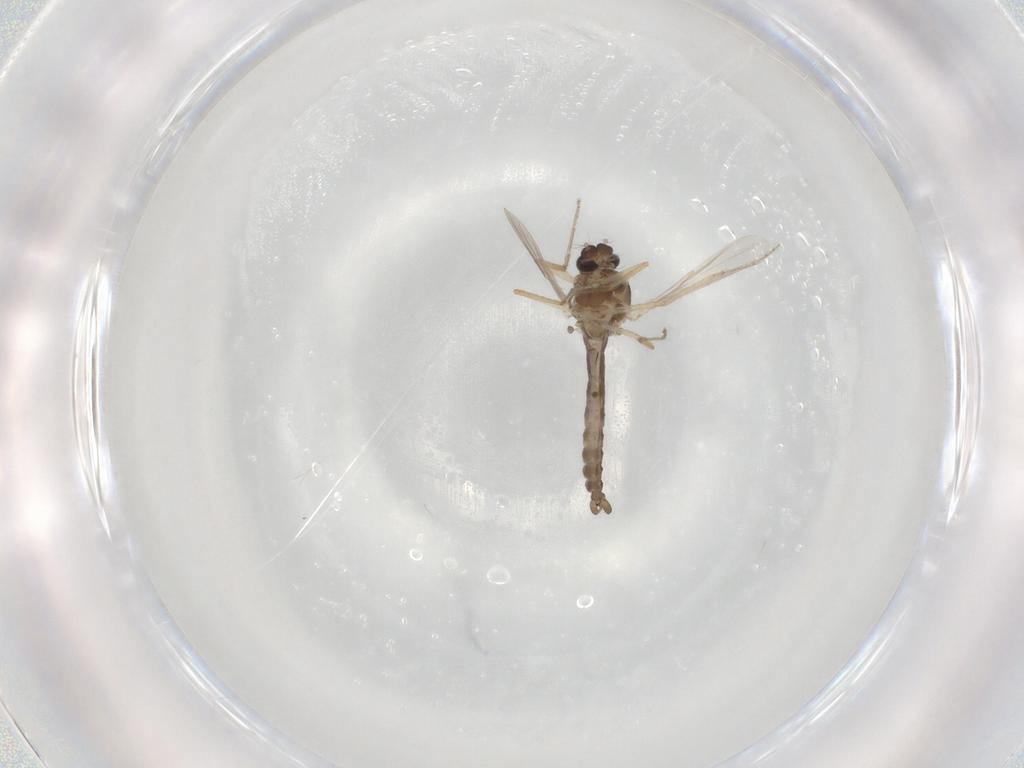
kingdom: Animalia
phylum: Arthropoda
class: Insecta
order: Diptera
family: Ceratopogonidae
